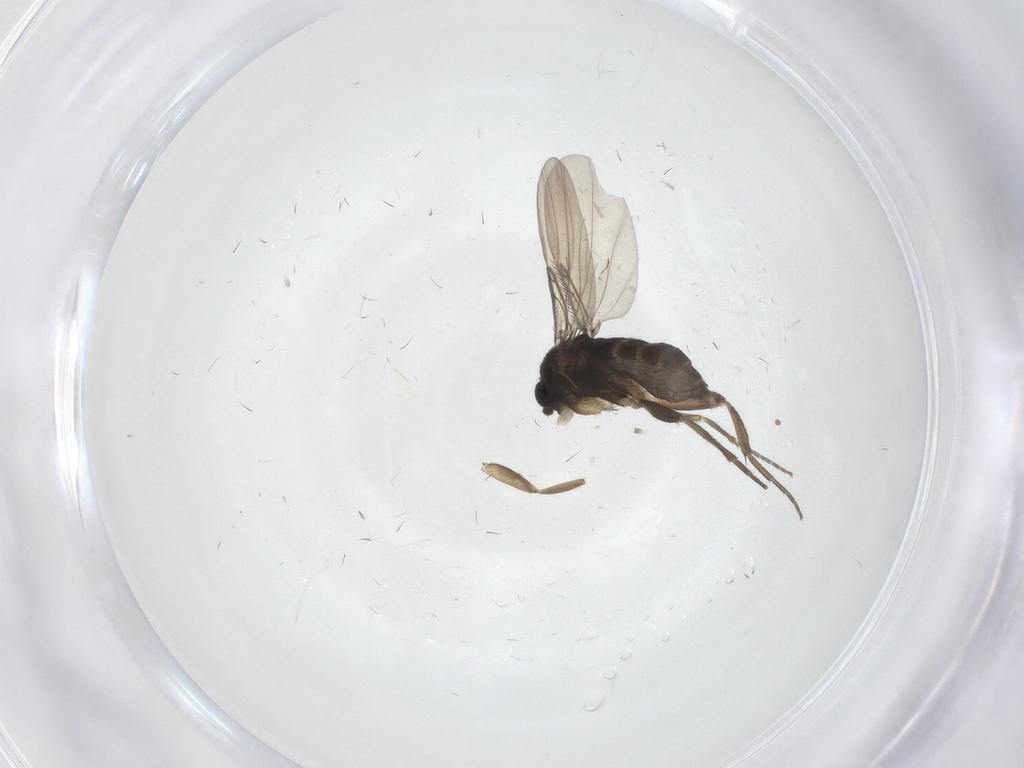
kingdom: Animalia
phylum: Arthropoda
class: Insecta
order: Diptera
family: Phoridae
